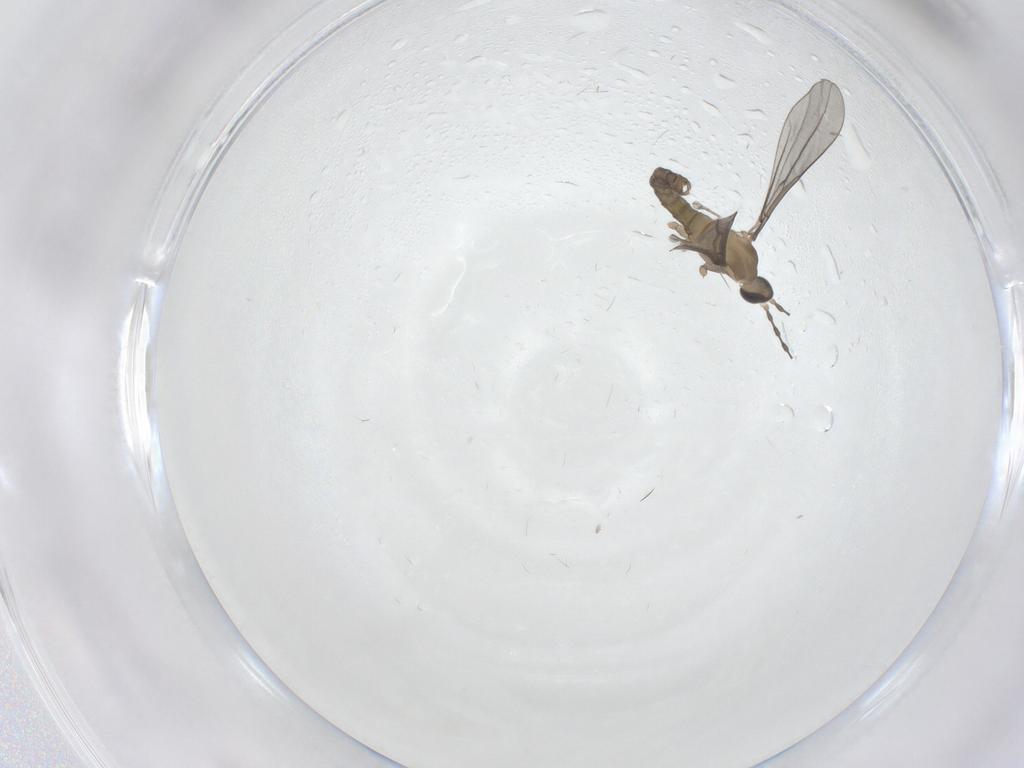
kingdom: Animalia
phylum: Arthropoda
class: Insecta
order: Diptera
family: Cecidomyiidae
